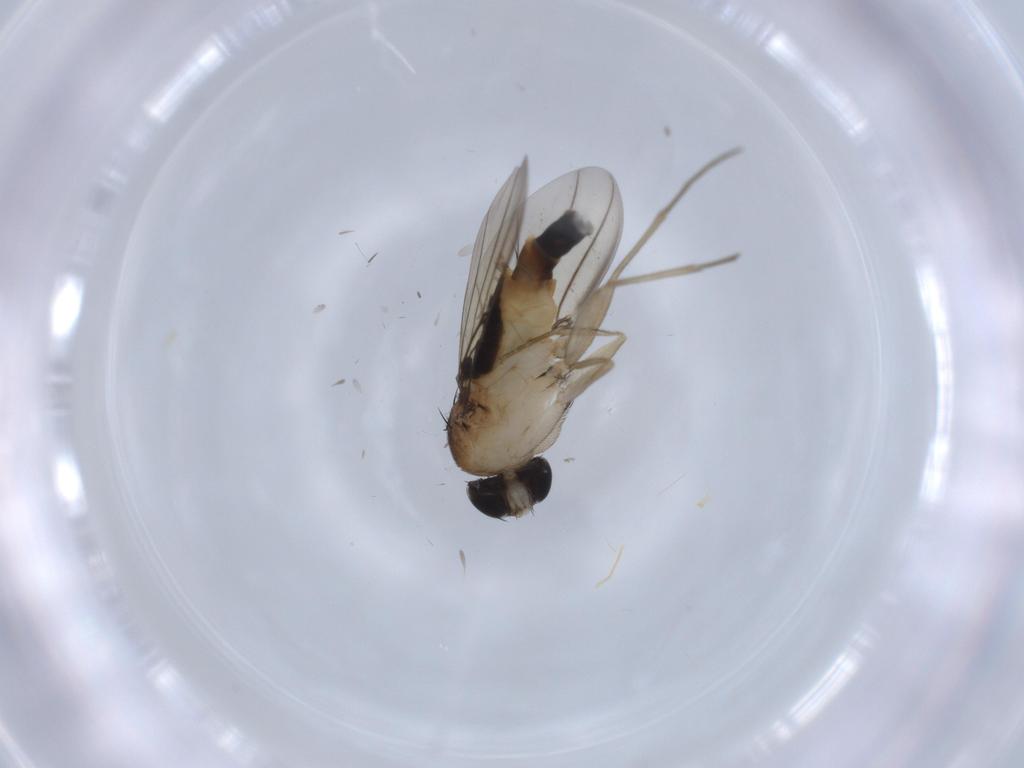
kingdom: Animalia
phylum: Arthropoda
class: Insecta
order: Diptera
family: Phoridae
